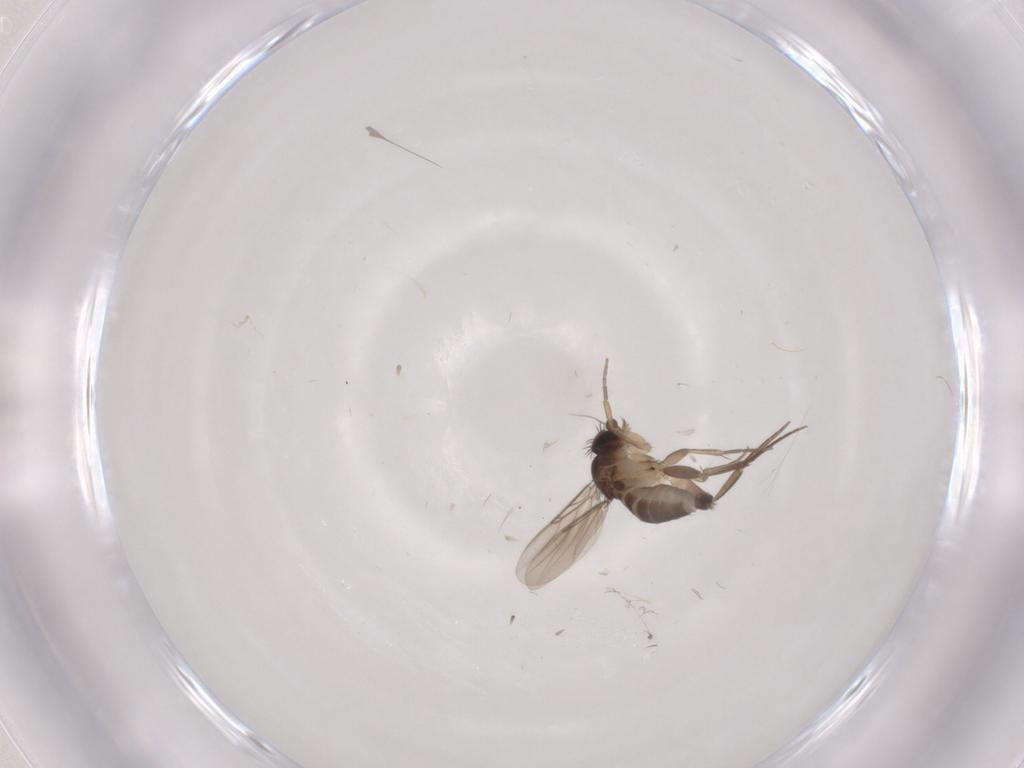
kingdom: Animalia
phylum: Arthropoda
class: Insecta
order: Diptera
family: Phoridae
